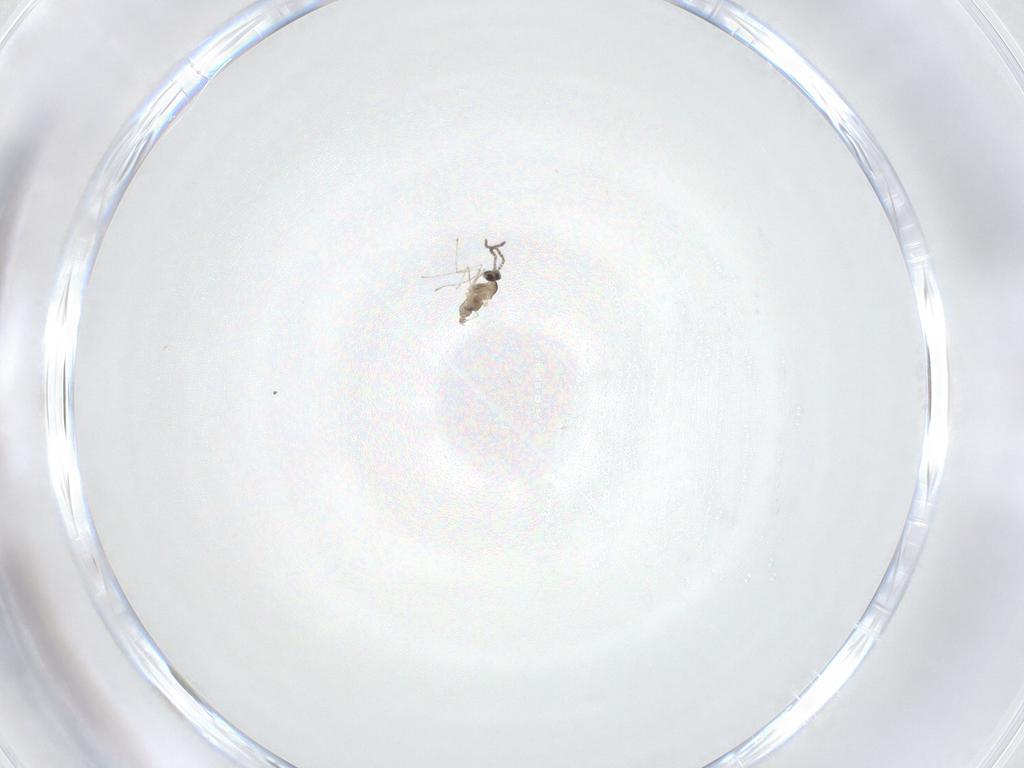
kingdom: Animalia
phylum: Arthropoda
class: Insecta
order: Diptera
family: Cecidomyiidae
